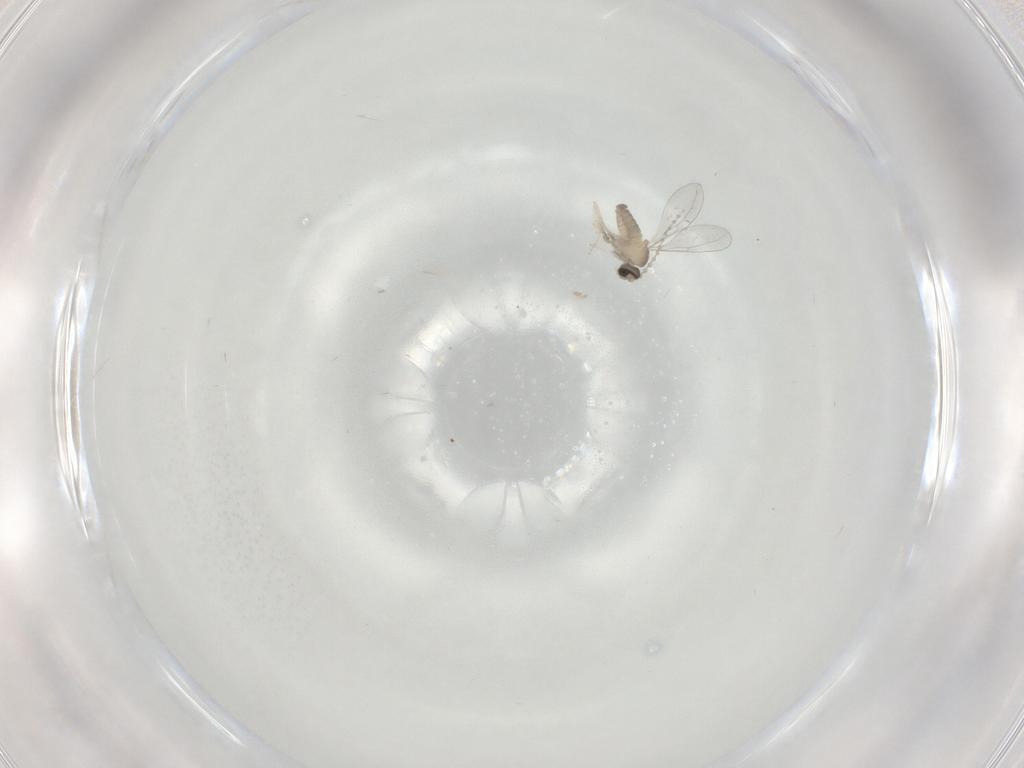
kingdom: Animalia
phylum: Arthropoda
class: Insecta
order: Diptera
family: Cecidomyiidae
